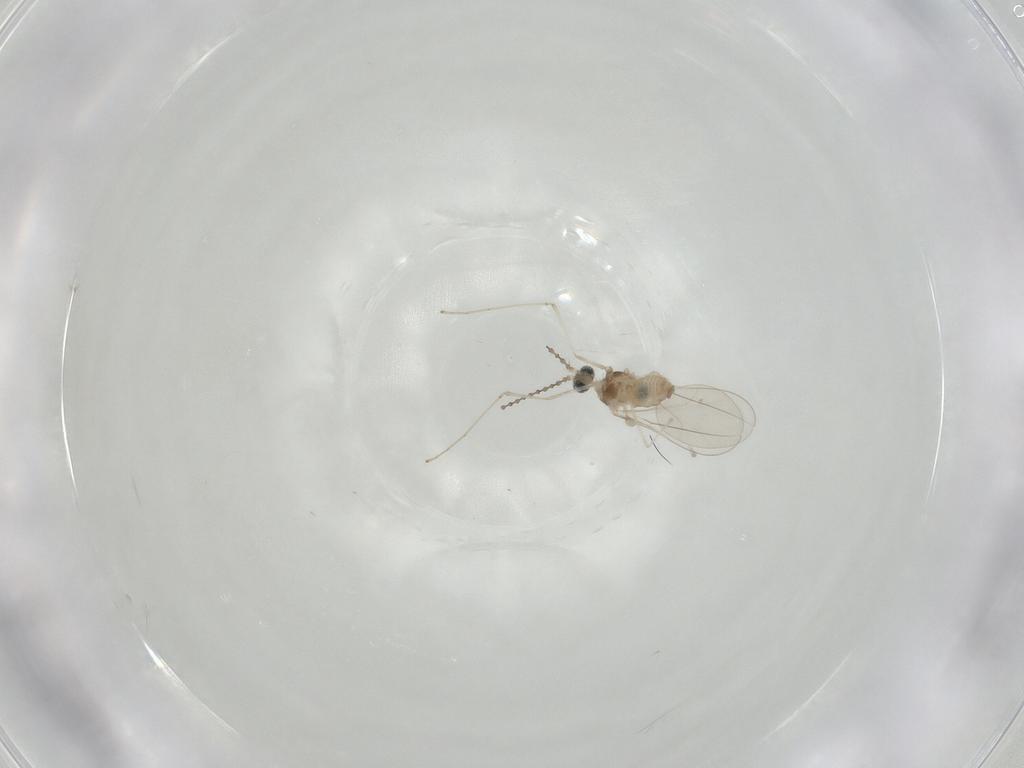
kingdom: Animalia
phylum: Arthropoda
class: Insecta
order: Diptera
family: Cecidomyiidae
